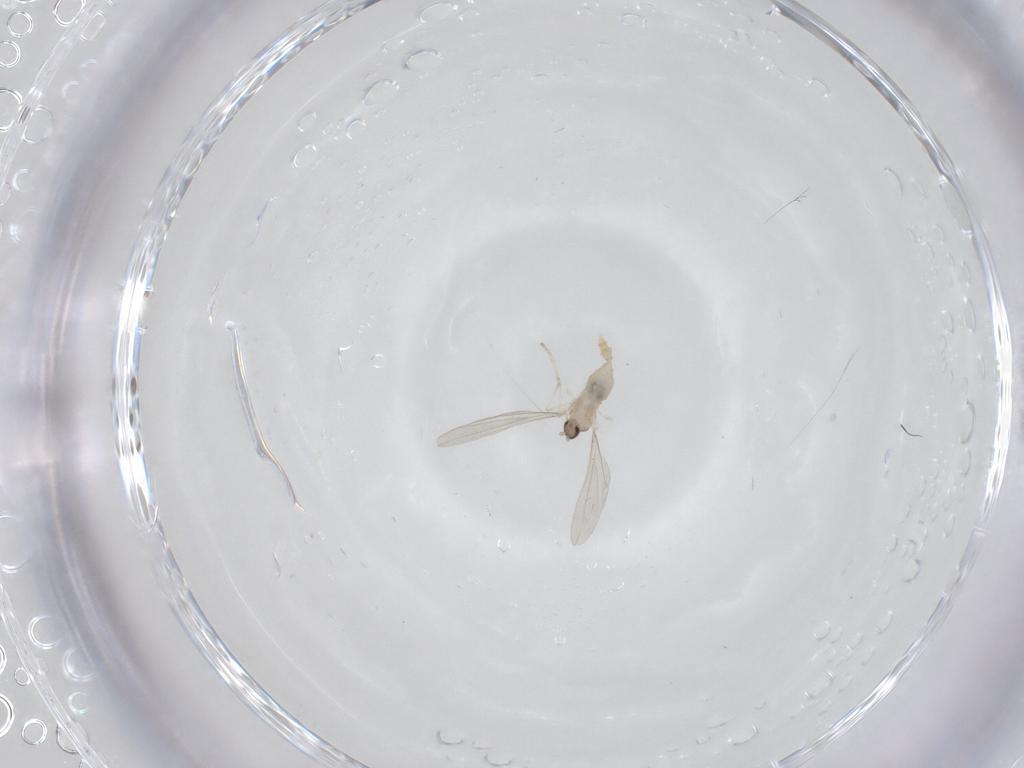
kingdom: Animalia
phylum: Arthropoda
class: Insecta
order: Diptera
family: Cecidomyiidae
